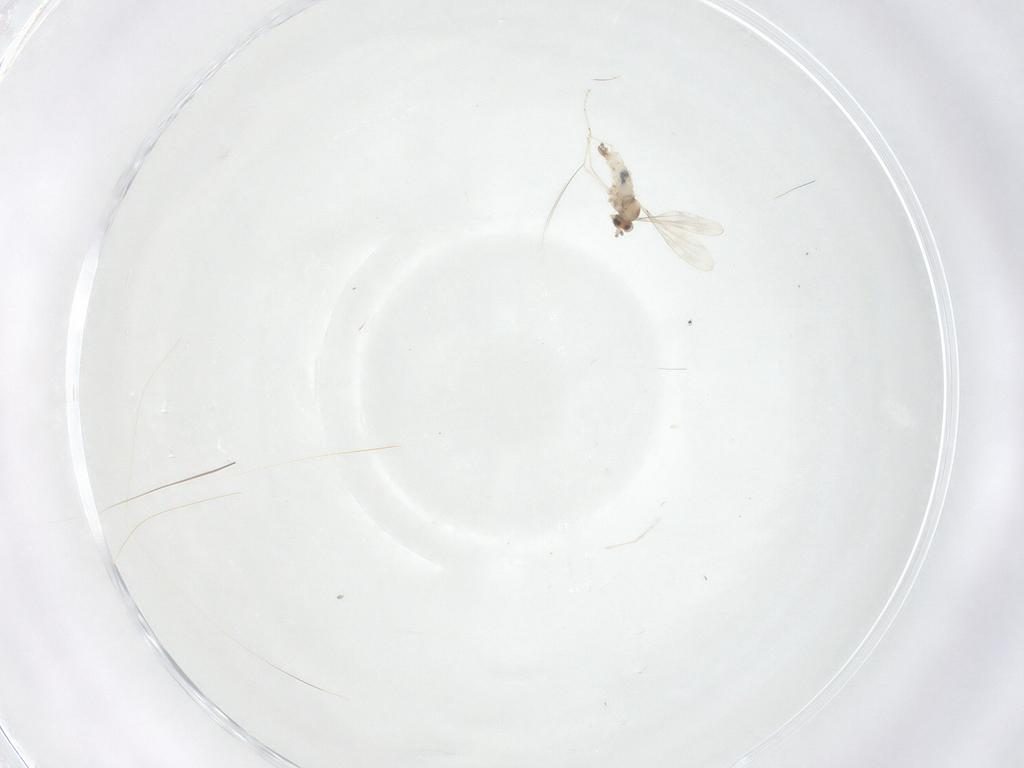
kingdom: Animalia
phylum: Arthropoda
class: Insecta
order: Diptera
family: Cecidomyiidae
